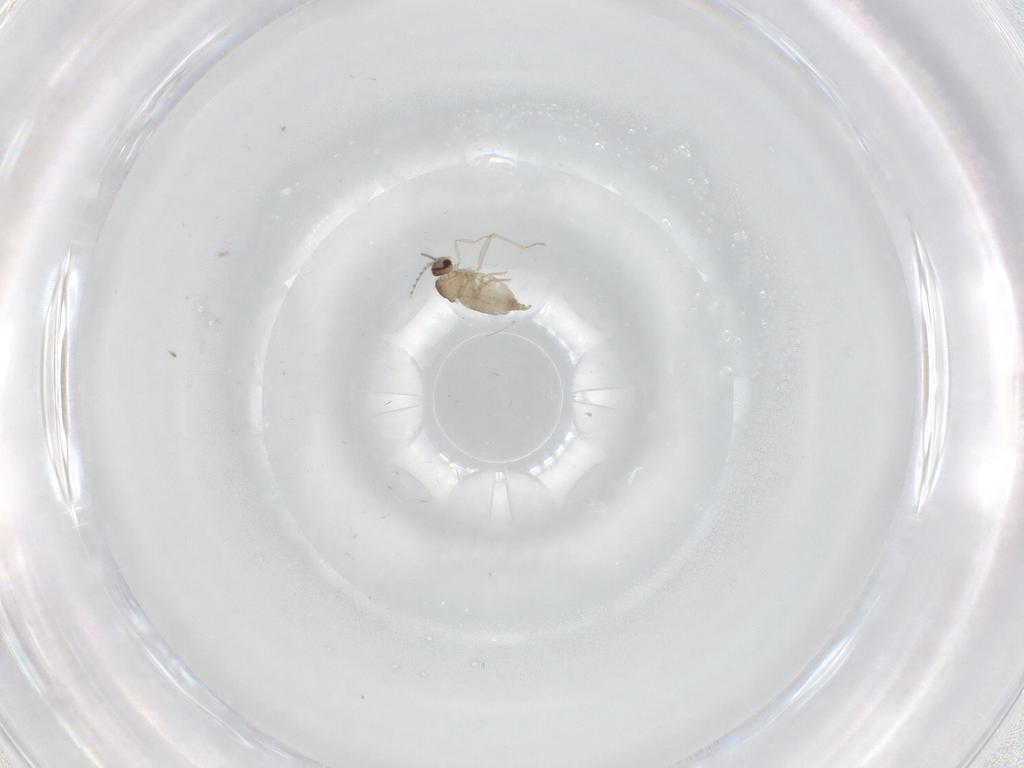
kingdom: Animalia
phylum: Arthropoda
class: Insecta
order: Diptera
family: Cecidomyiidae
